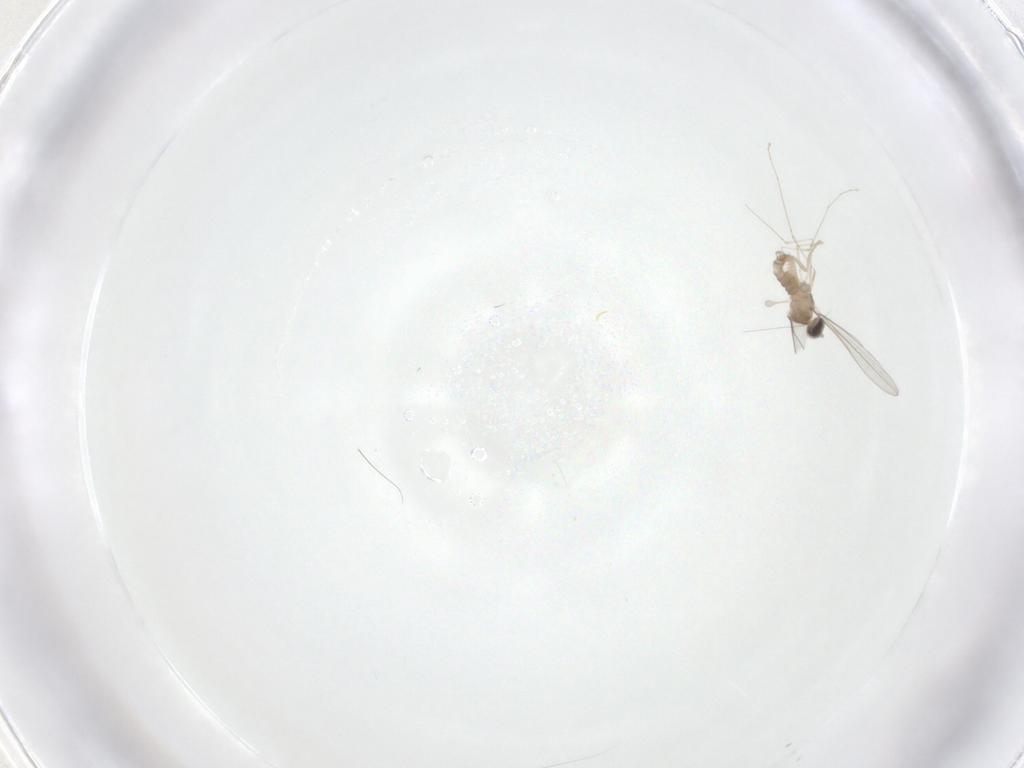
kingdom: Animalia
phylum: Arthropoda
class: Insecta
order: Diptera
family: Cecidomyiidae
